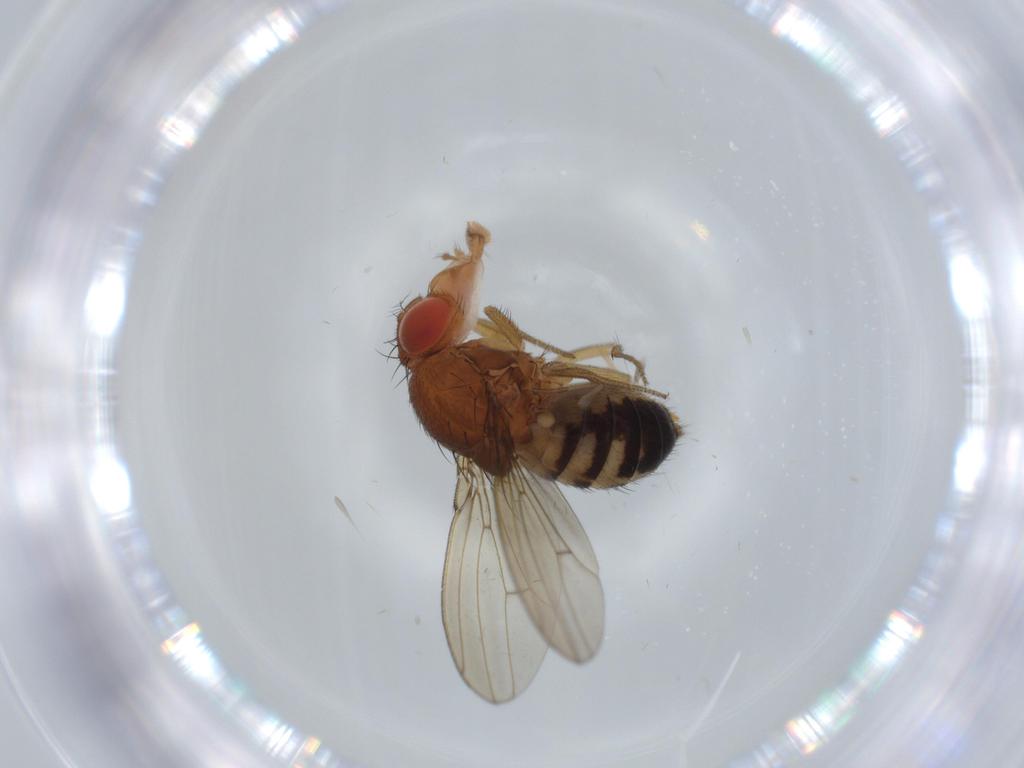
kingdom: Animalia
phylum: Arthropoda
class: Insecta
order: Diptera
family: Drosophilidae
